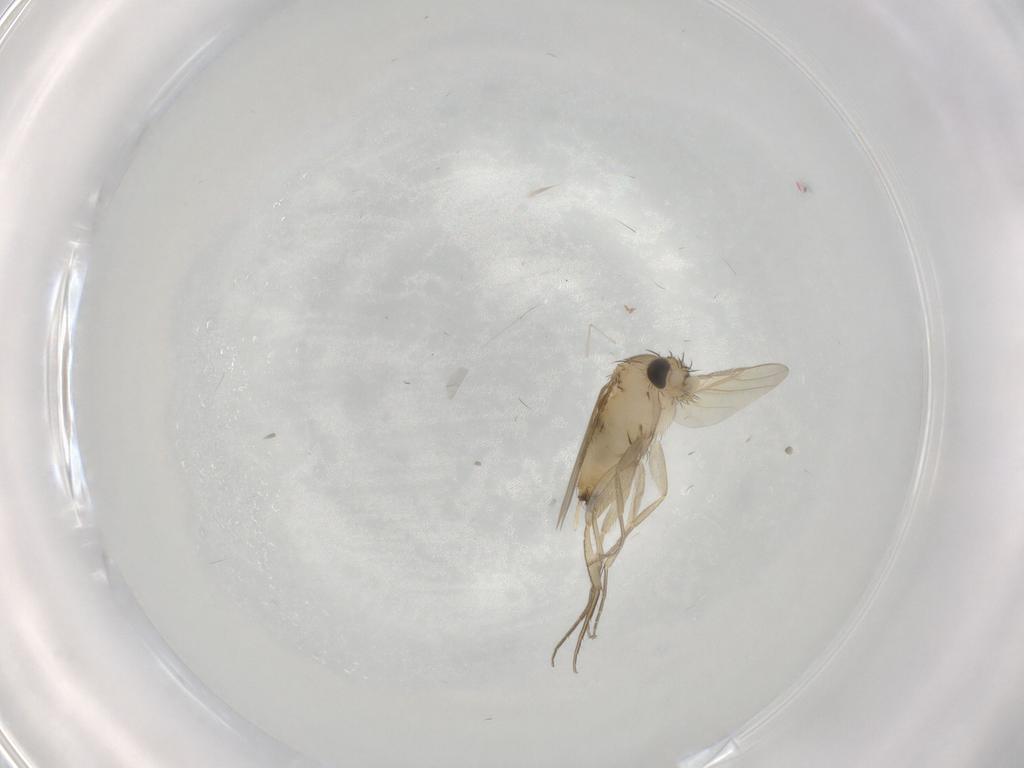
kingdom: Animalia
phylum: Arthropoda
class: Insecta
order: Diptera
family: Phoridae
